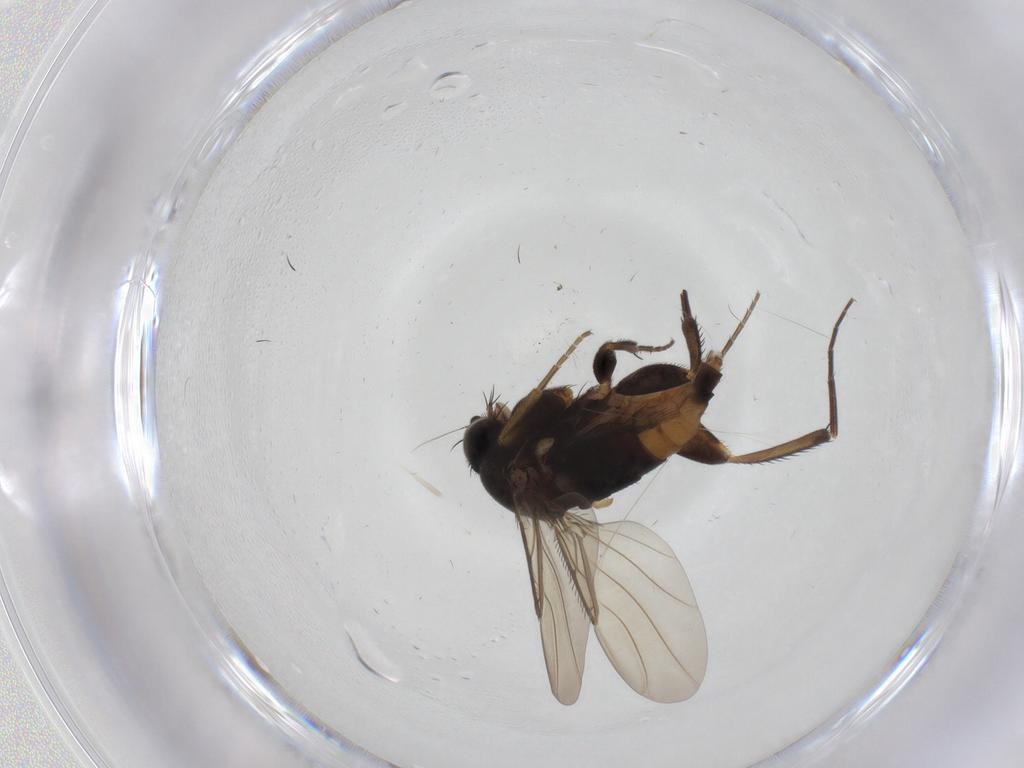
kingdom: Animalia
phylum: Arthropoda
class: Insecta
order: Diptera
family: Phoridae
